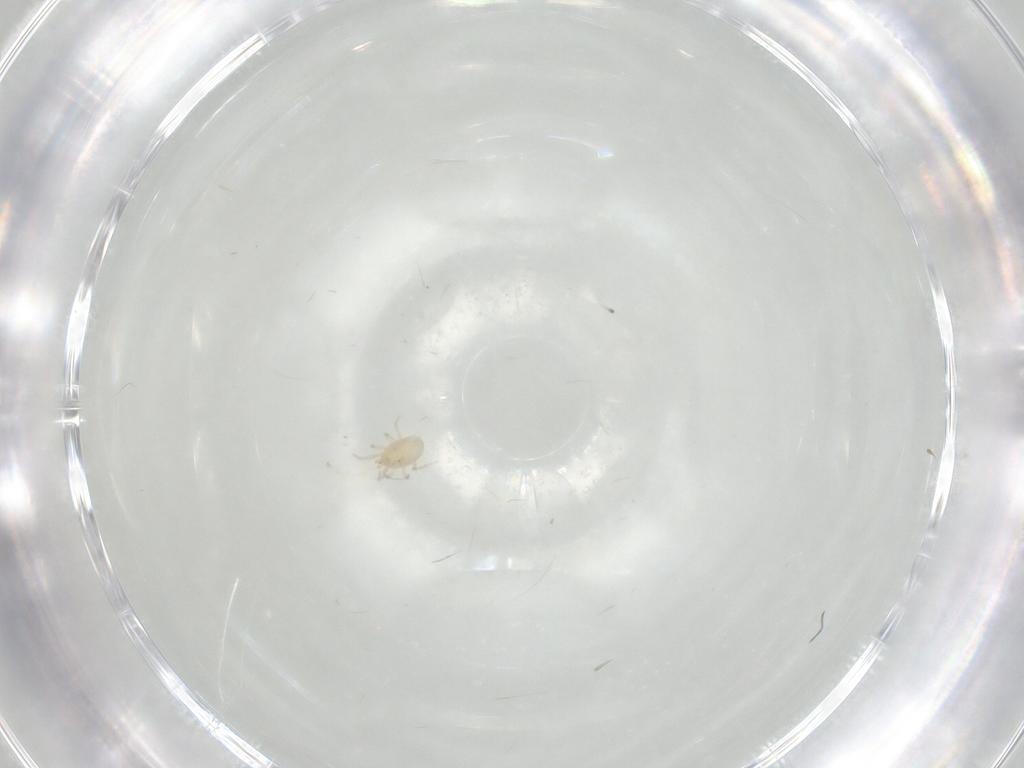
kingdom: Animalia
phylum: Arthropoda
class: Arachnida
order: Mesostigmata
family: Phytoseiidae
